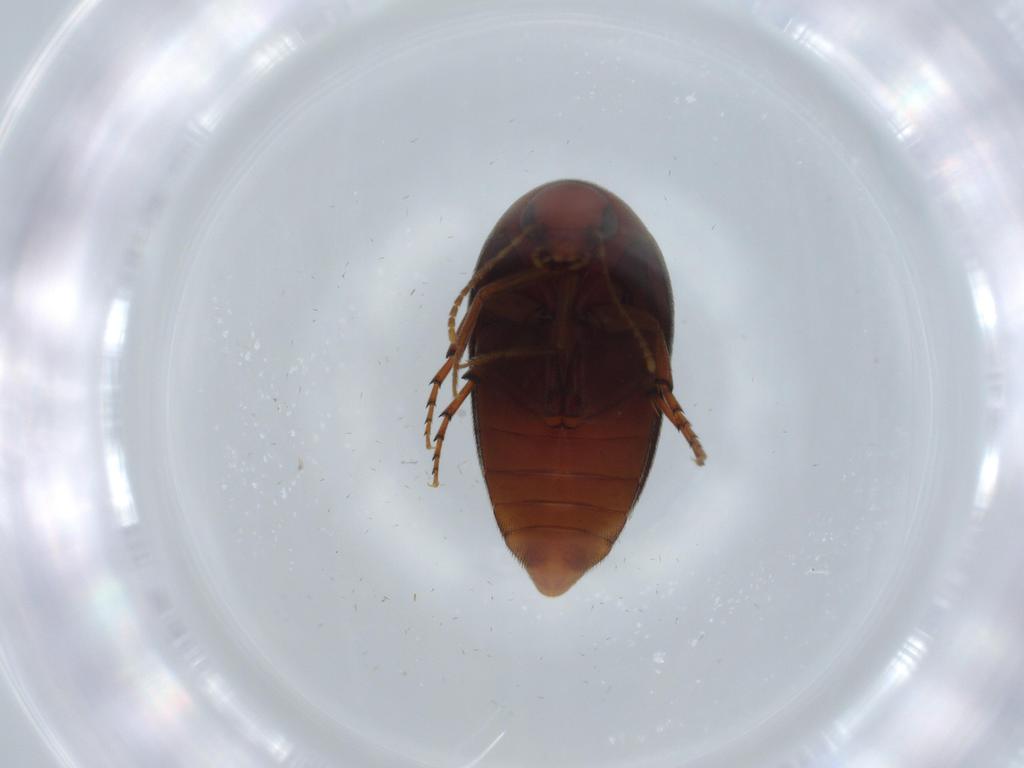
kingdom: Animalia
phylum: Arthropoda
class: Insecta
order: Coleoptera
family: Eucinetidae
